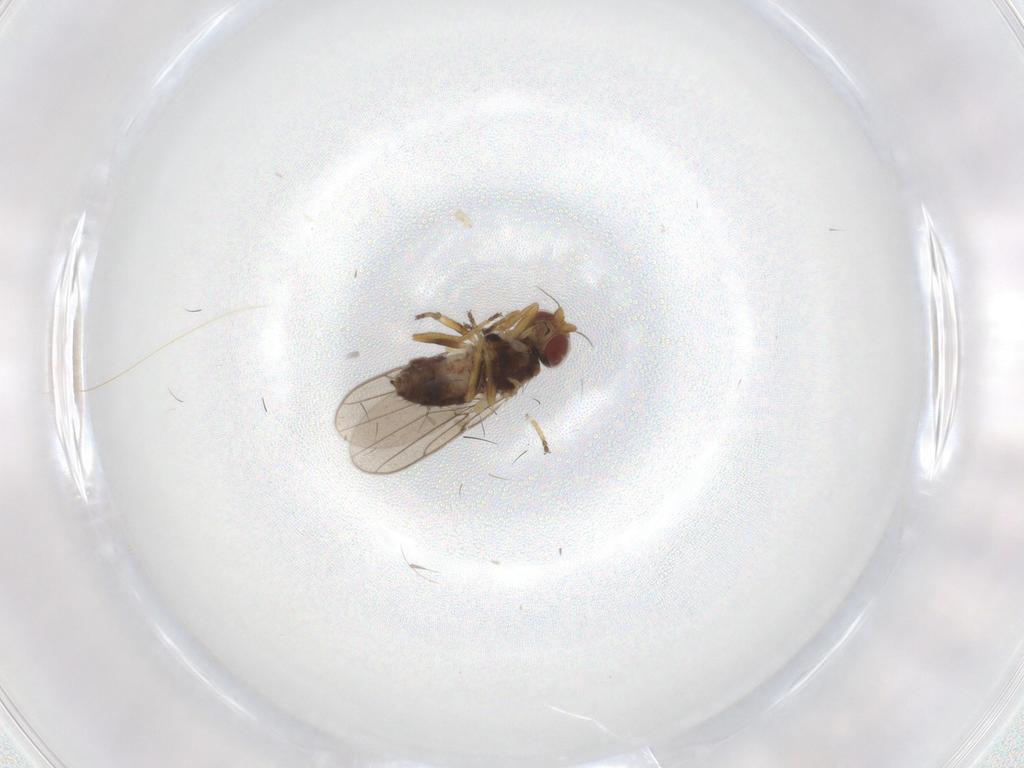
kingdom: Animalia
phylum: Arthropoda
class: Insecta
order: Diptera
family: Chloropidae
